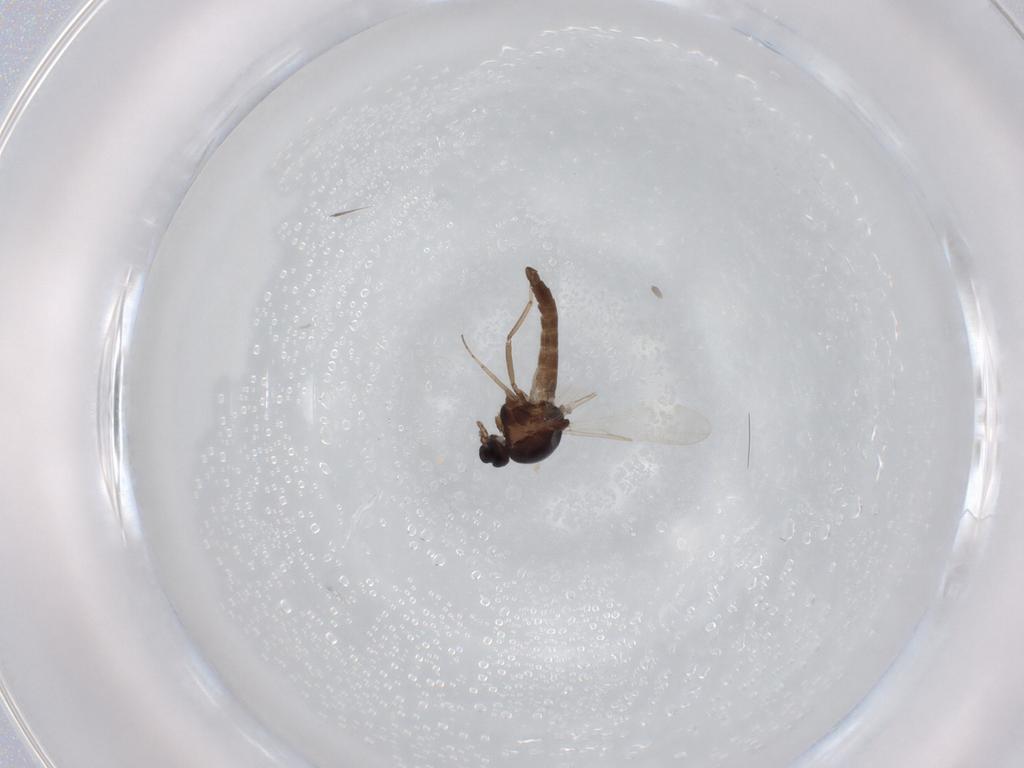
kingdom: Animalia
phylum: Arthropoda
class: Insecta
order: Diptera
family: Ceratopogonidae
